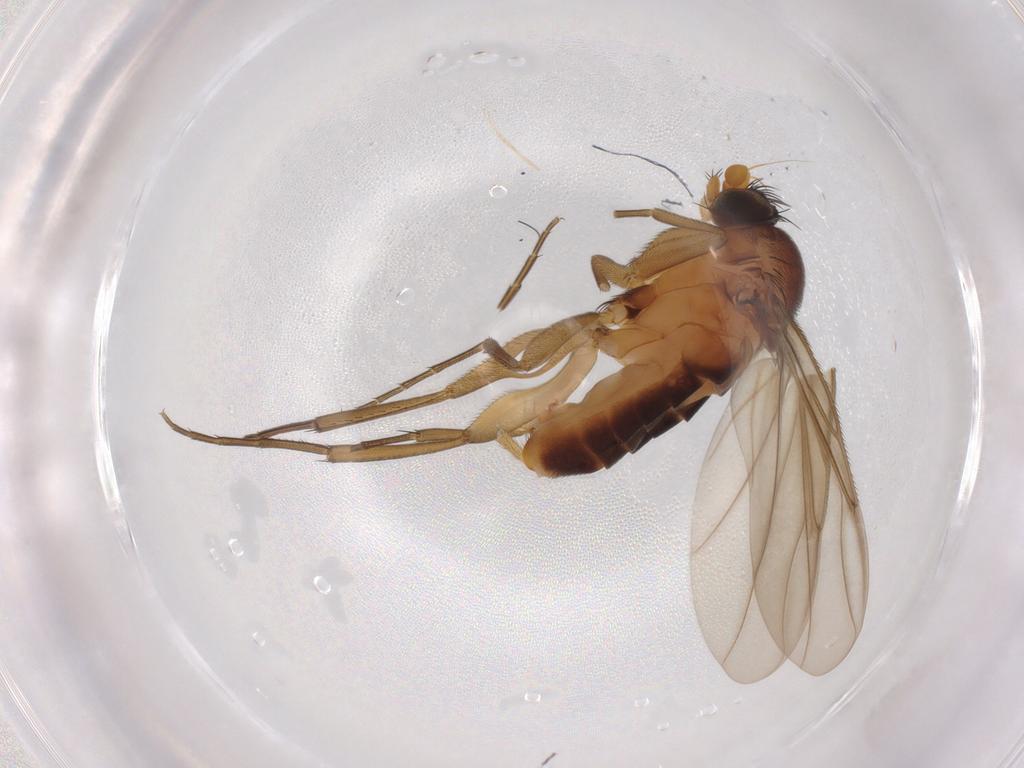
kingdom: Animalia
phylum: Arthropoda
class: Insecta
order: Diptera
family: Phoridae
